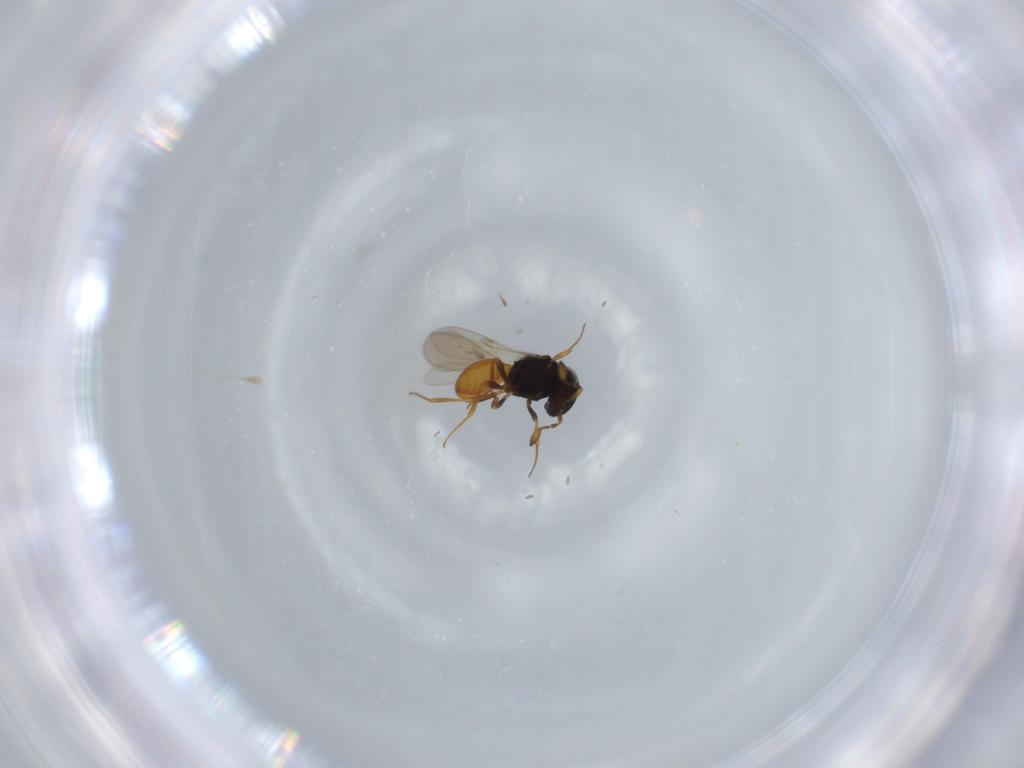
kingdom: Animalia
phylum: Arthropoda
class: Insecta
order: Hymenoptera
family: Scelionidae
